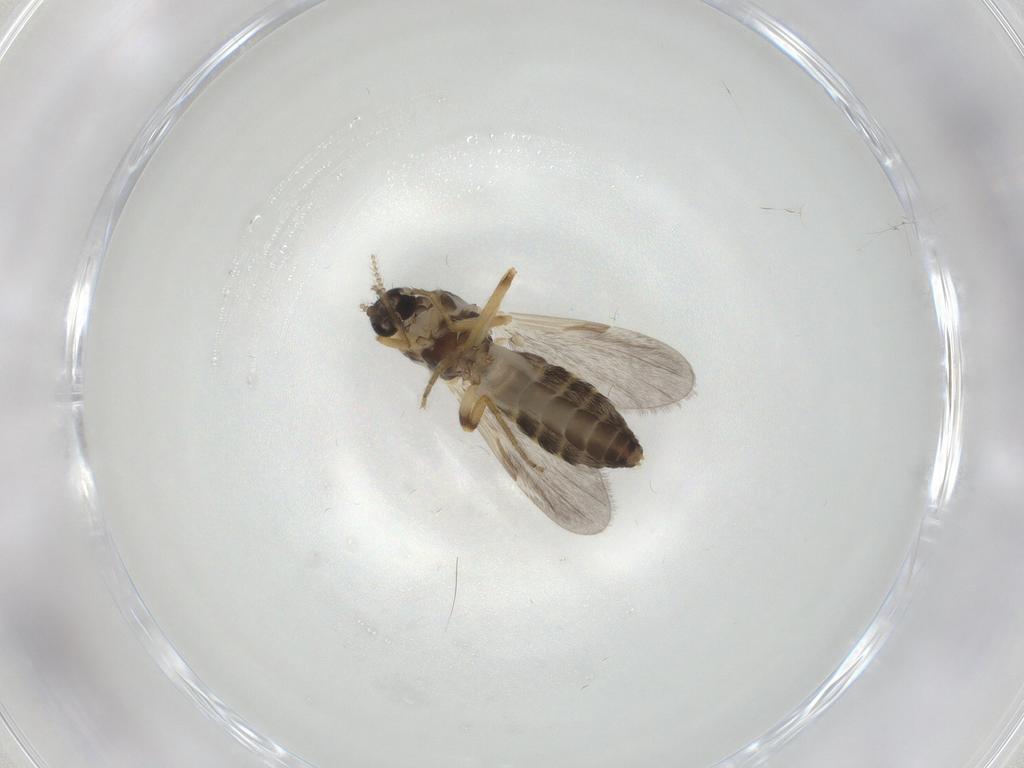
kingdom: Animalia
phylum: Arthropoda
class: Insecta
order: Diptera
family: Ceratopogonidae
